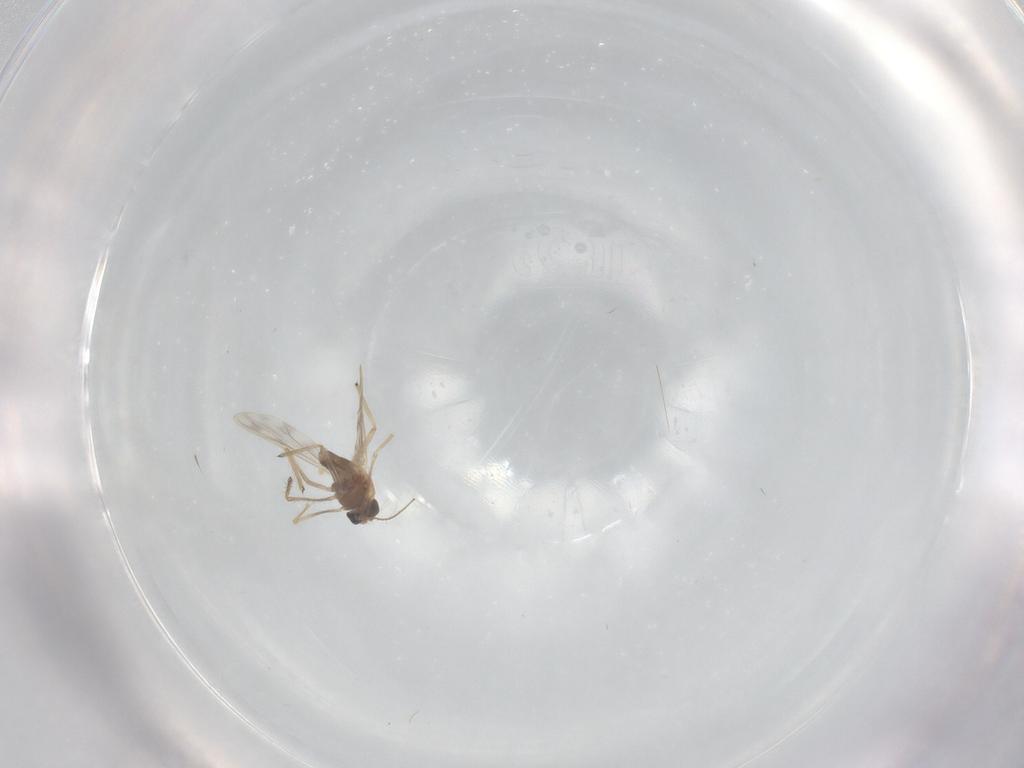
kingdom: Animalia
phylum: Arthropoda
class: Insecta
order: Diptera
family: Chironomidae
